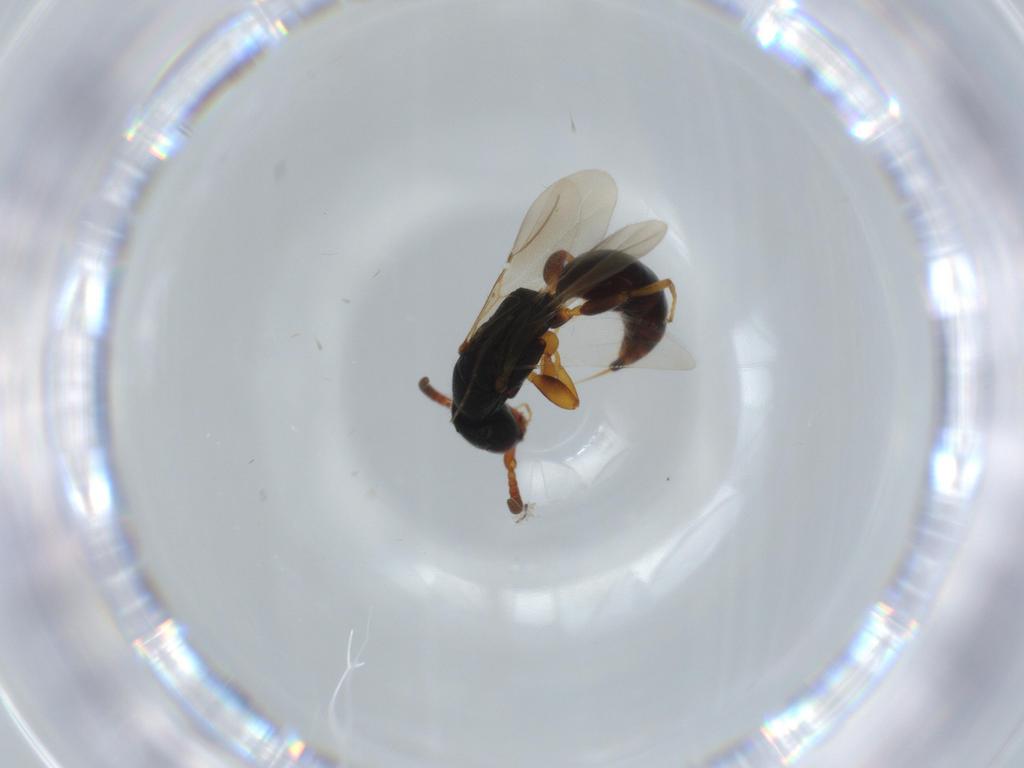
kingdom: Animalia
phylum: Arthropoda
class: Insecta
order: Hymenoptera
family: Bethylidae
